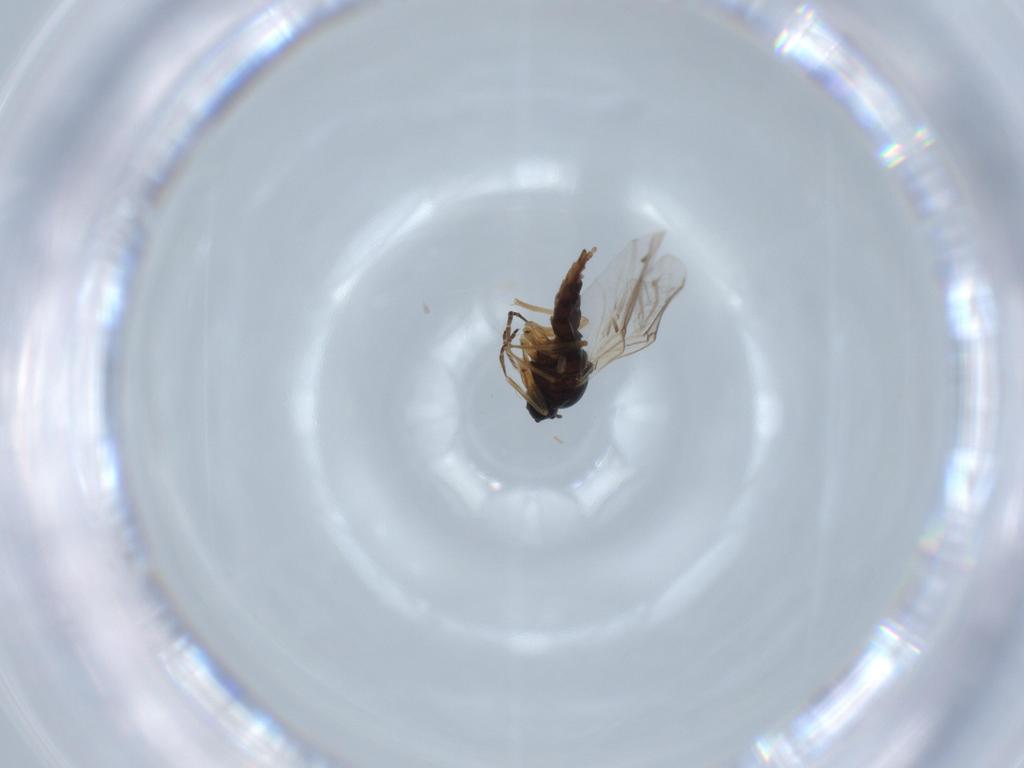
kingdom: Animalia
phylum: Arthropoda
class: Insecta
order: Diptera
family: Sciaridae
